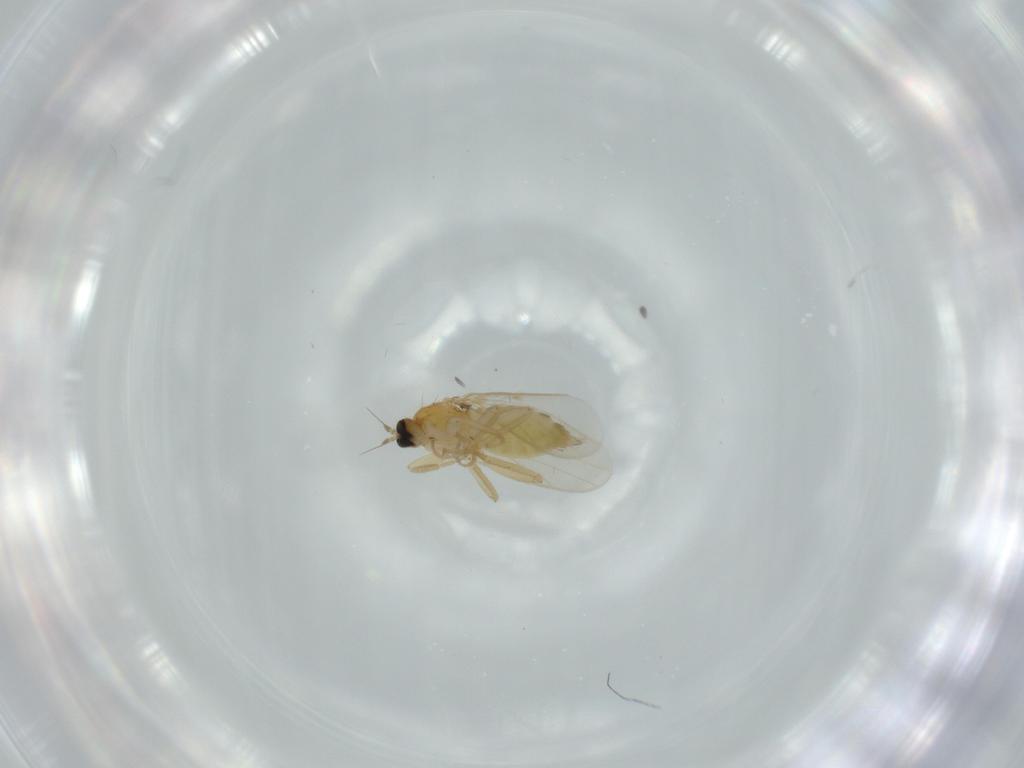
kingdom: Animalia
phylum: Arthropoda
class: Insecta
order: Diptera
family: Hybotidae
